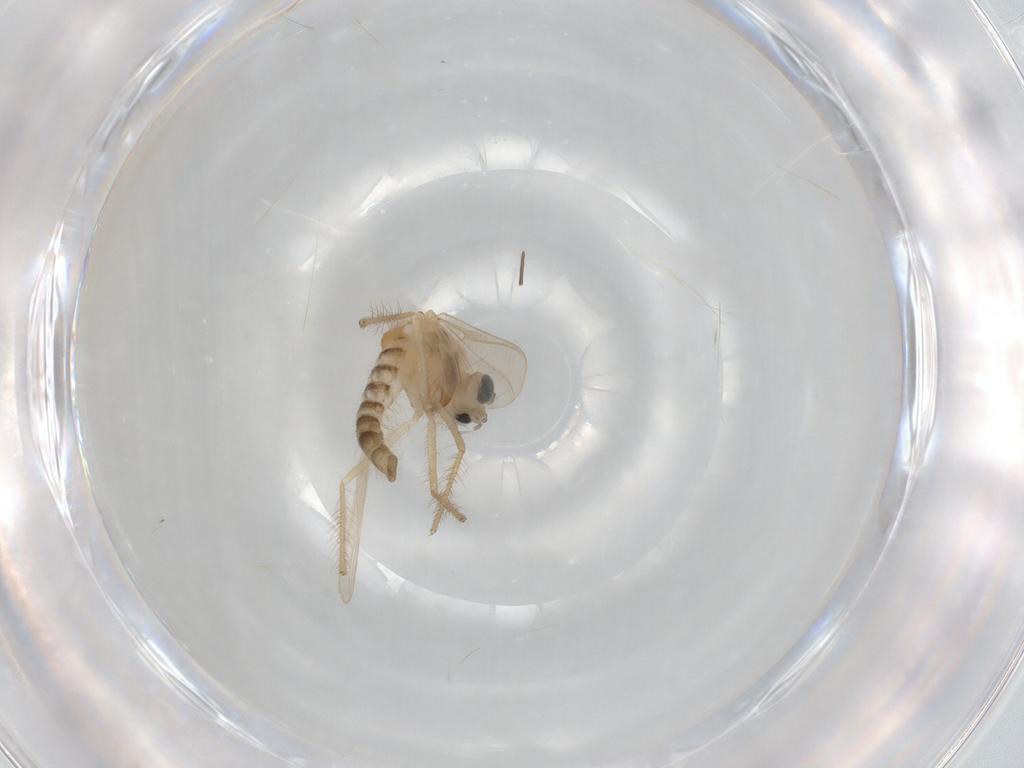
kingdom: Animalia
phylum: Arthropoda
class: Insecta
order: Diptera
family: Chironomidae
